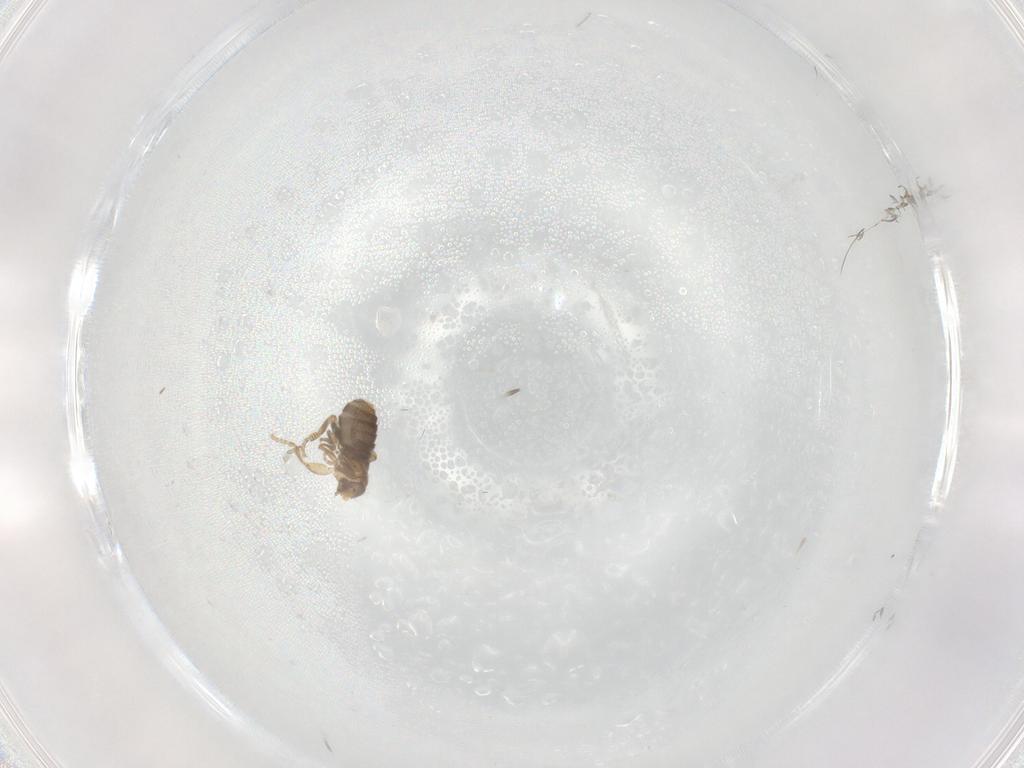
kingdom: Animalia
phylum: Arthropoda
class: Insecta
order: Diptera
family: Cecidomyiidae
